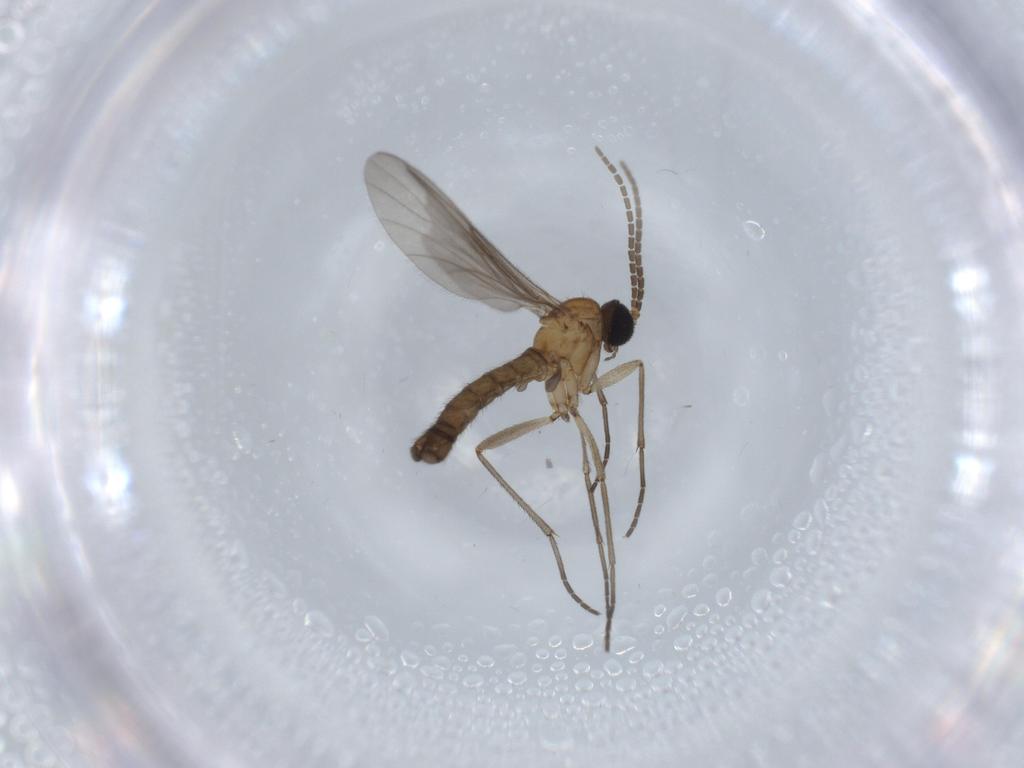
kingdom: Animalia
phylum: Arthropoda
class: Insecta
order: Diptera
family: Sciaridae
